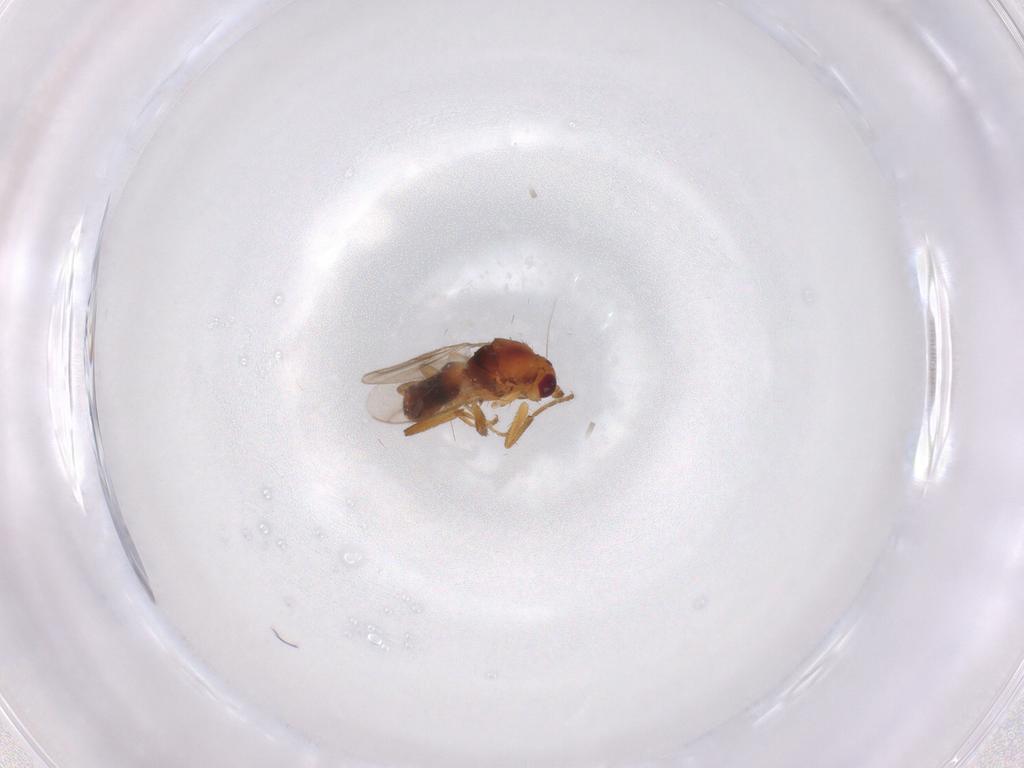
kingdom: Animalia
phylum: Arthropoda
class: Insecta
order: Diptera
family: Sphaeroceridae
